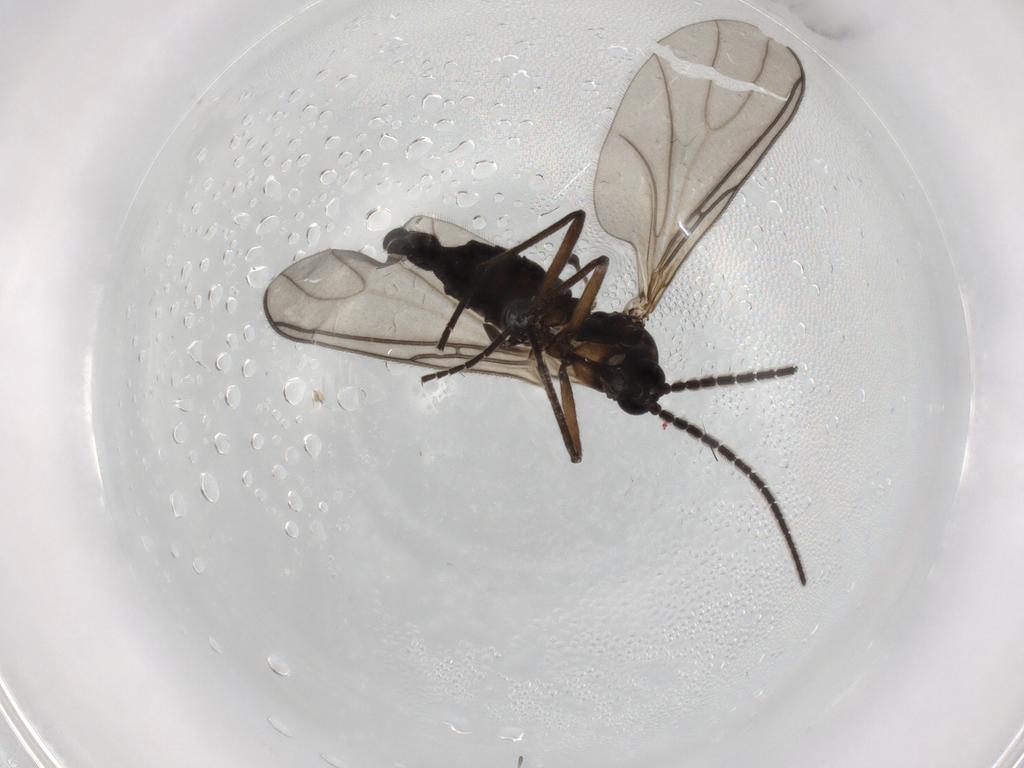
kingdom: Animalia
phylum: Arthropoda
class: Insecta
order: Diptera
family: Sciaridae
